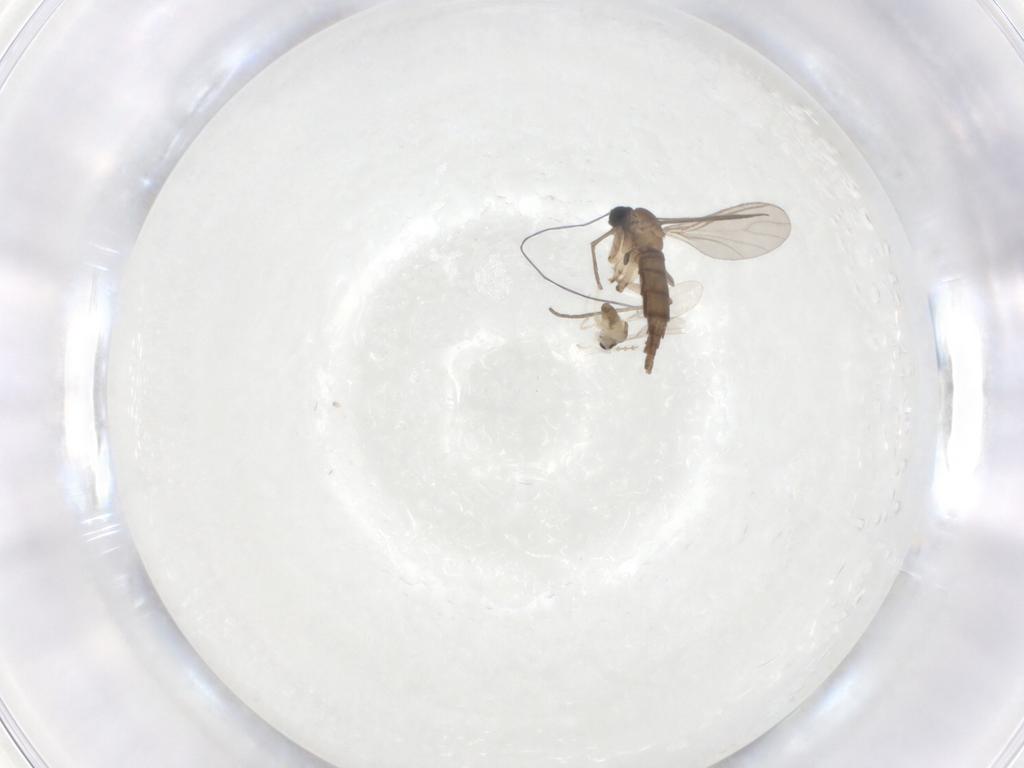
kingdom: Animalia
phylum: Arthropoda
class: Insecta
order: Diptera
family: Cecidomyiidae
